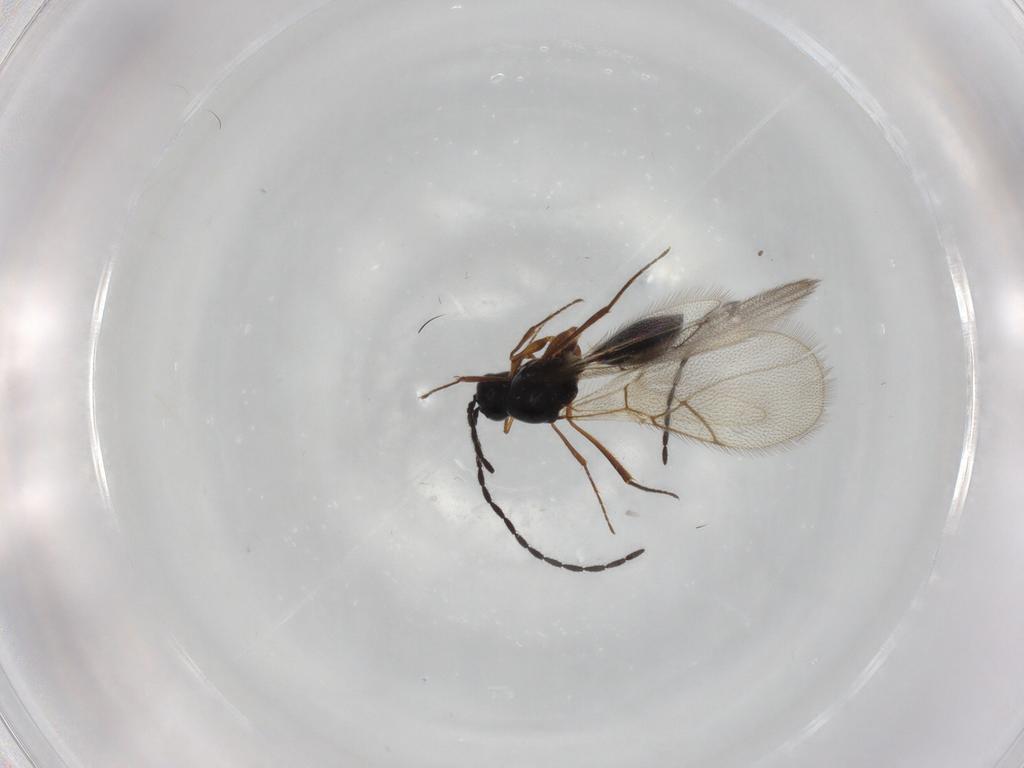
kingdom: Animalia
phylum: Arthropoda
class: Insecta
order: Hymenoptera
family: Figitidae
